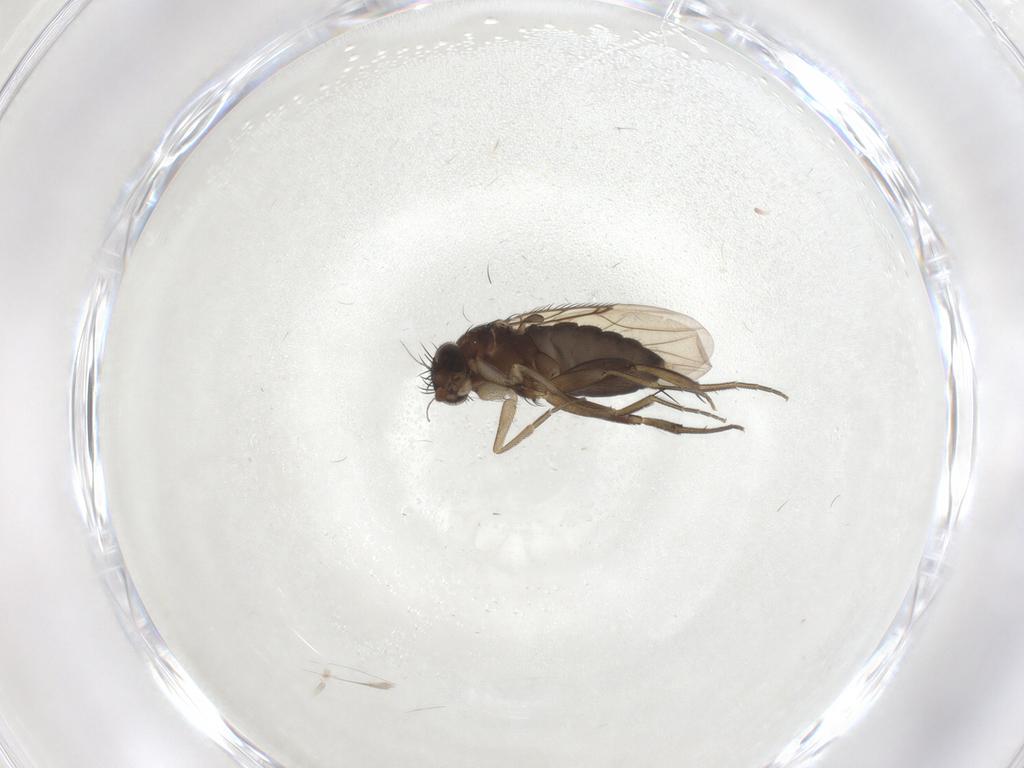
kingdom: Animalia
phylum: Arthropoda
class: Insecta
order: Diptera
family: Phoridae
